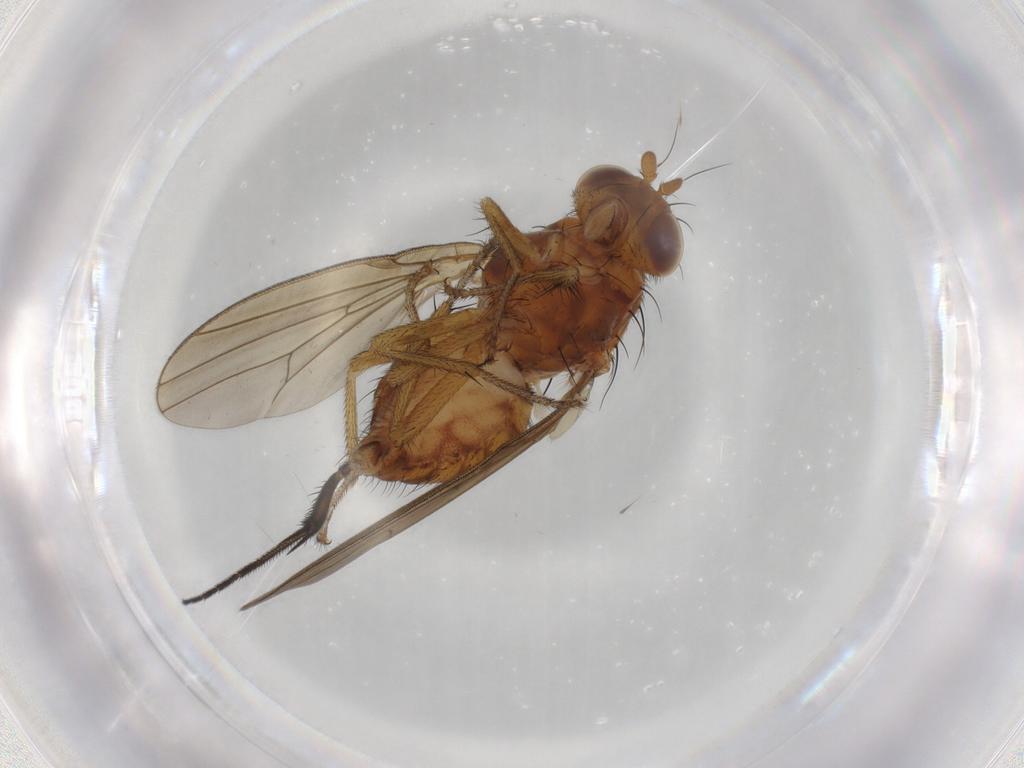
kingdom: Animalia
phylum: Arthropoda
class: Insecta
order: Diptera
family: Lauxaniidae
